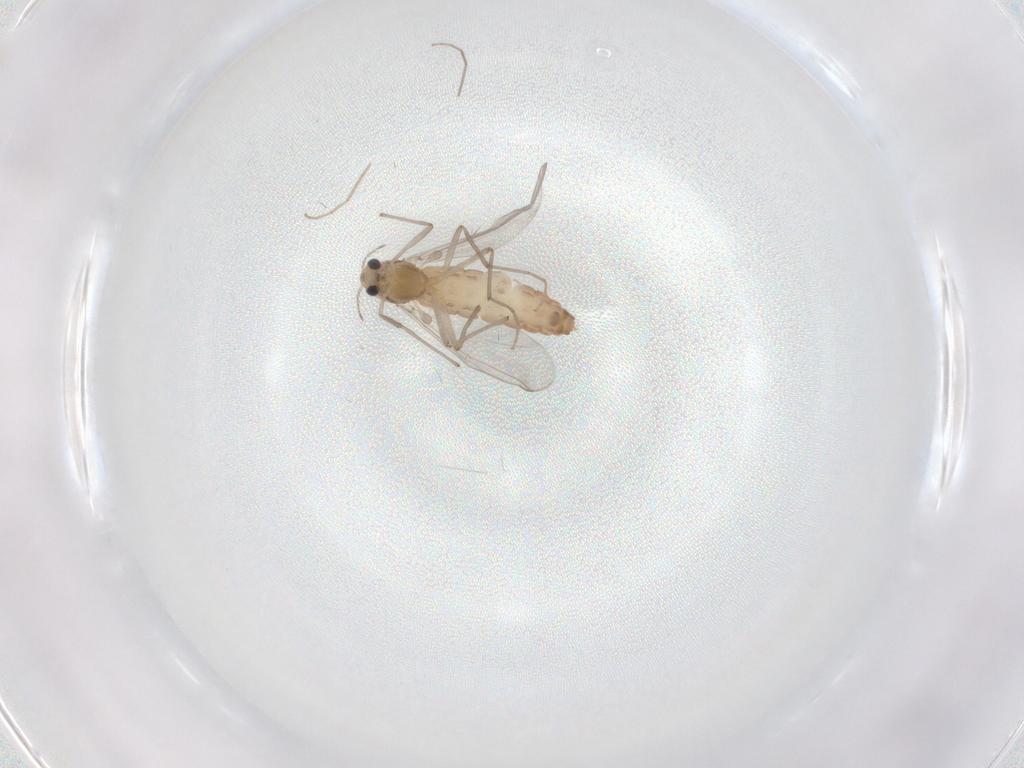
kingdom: Animalia
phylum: Arthropoda
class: Insecta
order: Diptera
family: Chironomidae
